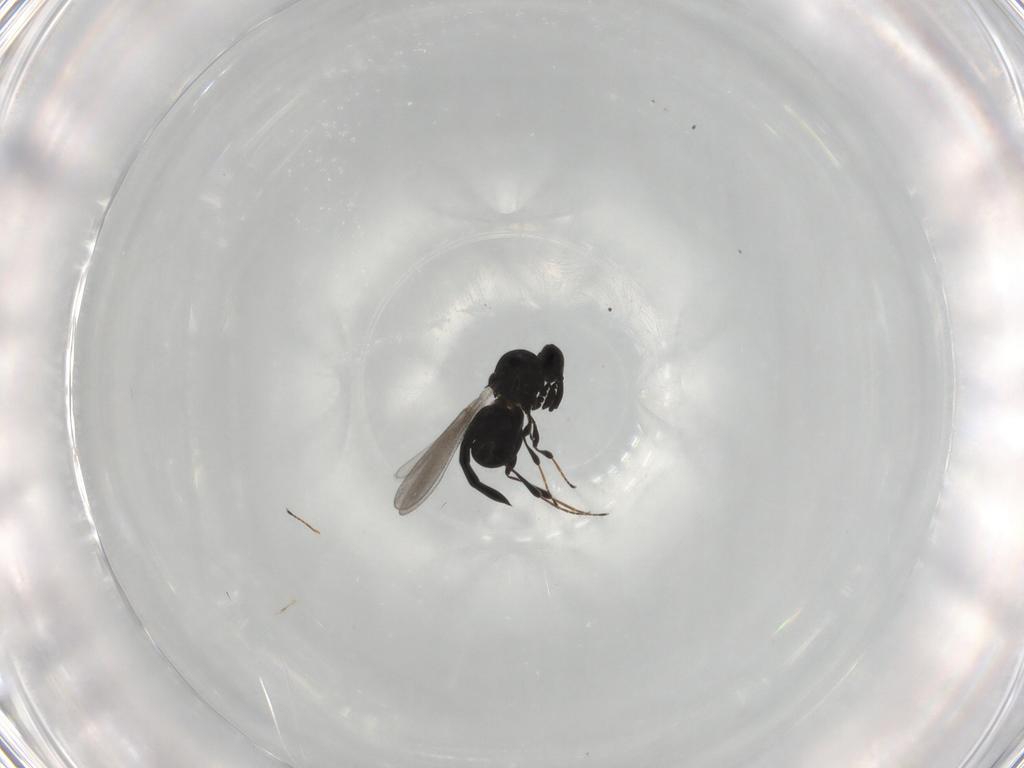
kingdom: Animalia
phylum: Arthropoda
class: Insecta
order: Hymenoptera
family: Platygastridae
